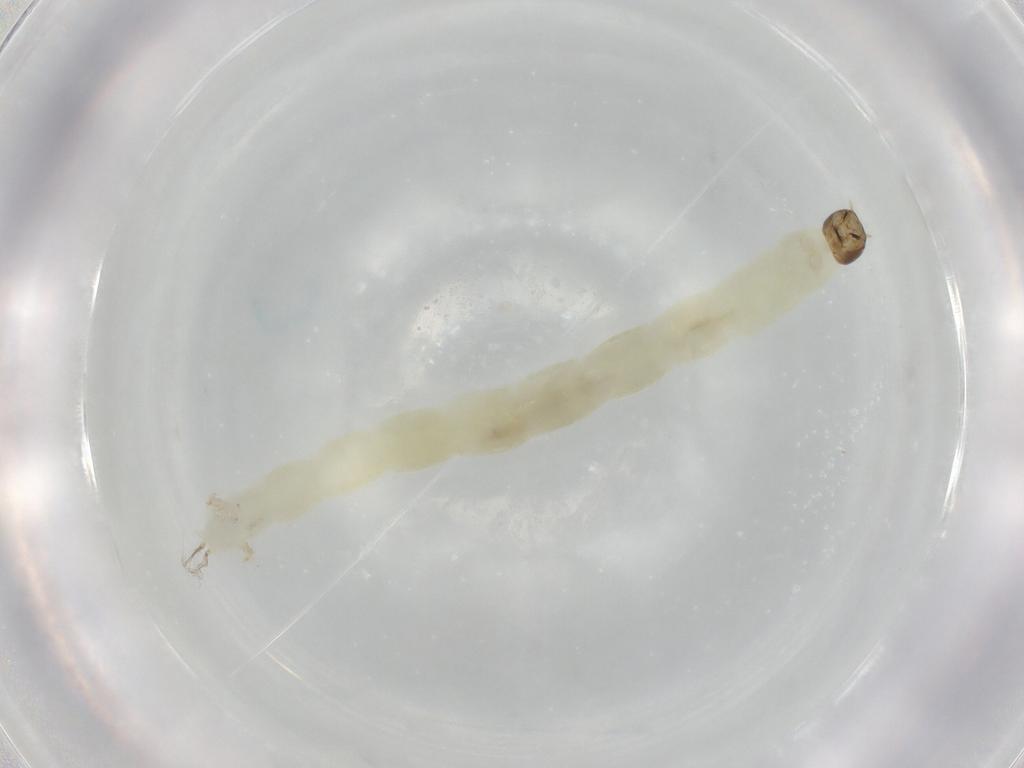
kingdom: Animalia
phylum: Arthropoda
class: Insecta
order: Diptera
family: Chironomidae
